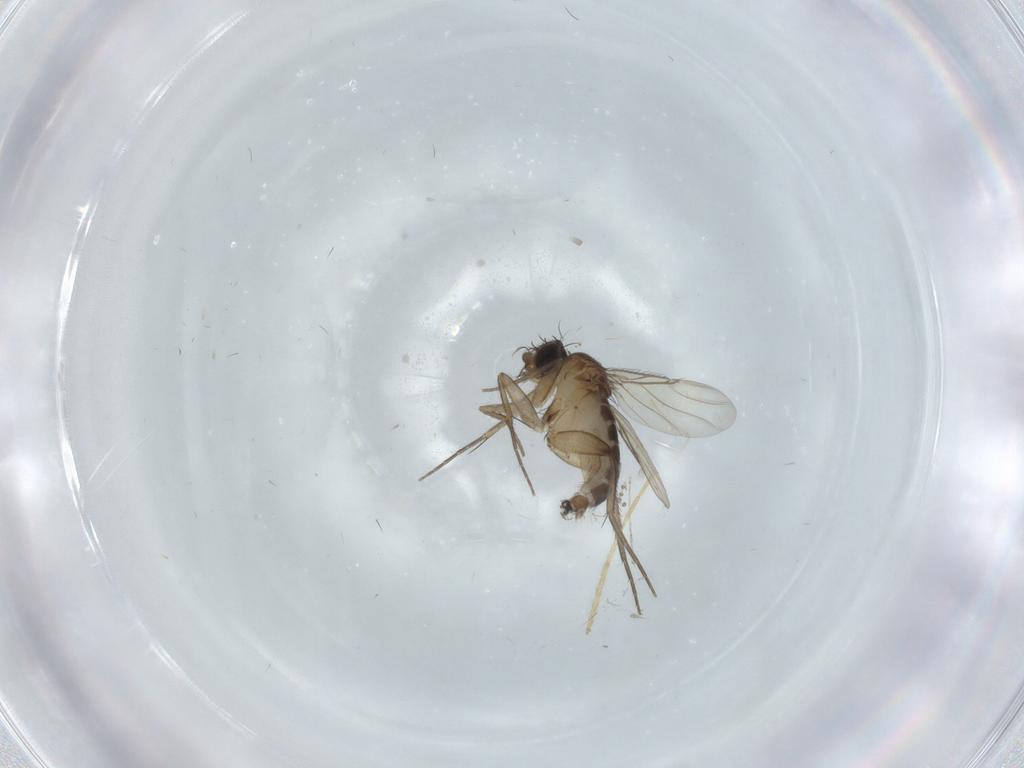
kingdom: Animalia
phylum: Arthropoda
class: Insecta
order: Diptera
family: Phoridae
